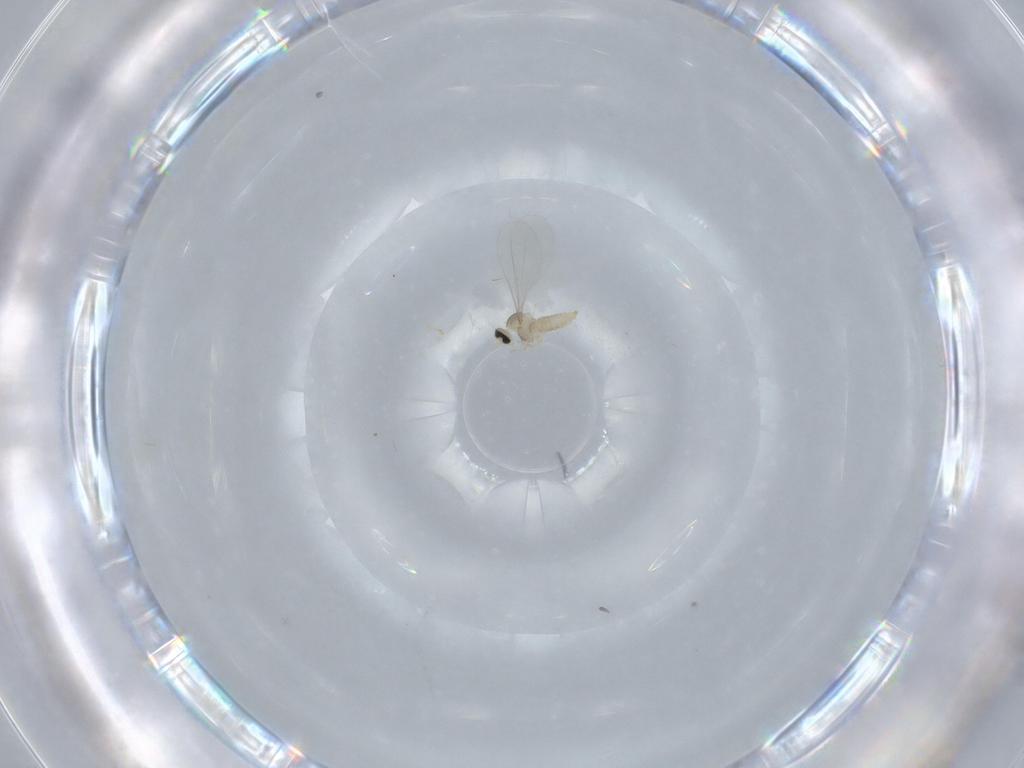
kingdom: Animalia
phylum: Arthropoda
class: Insecta
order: Diptera
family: Cecidomyiidae
